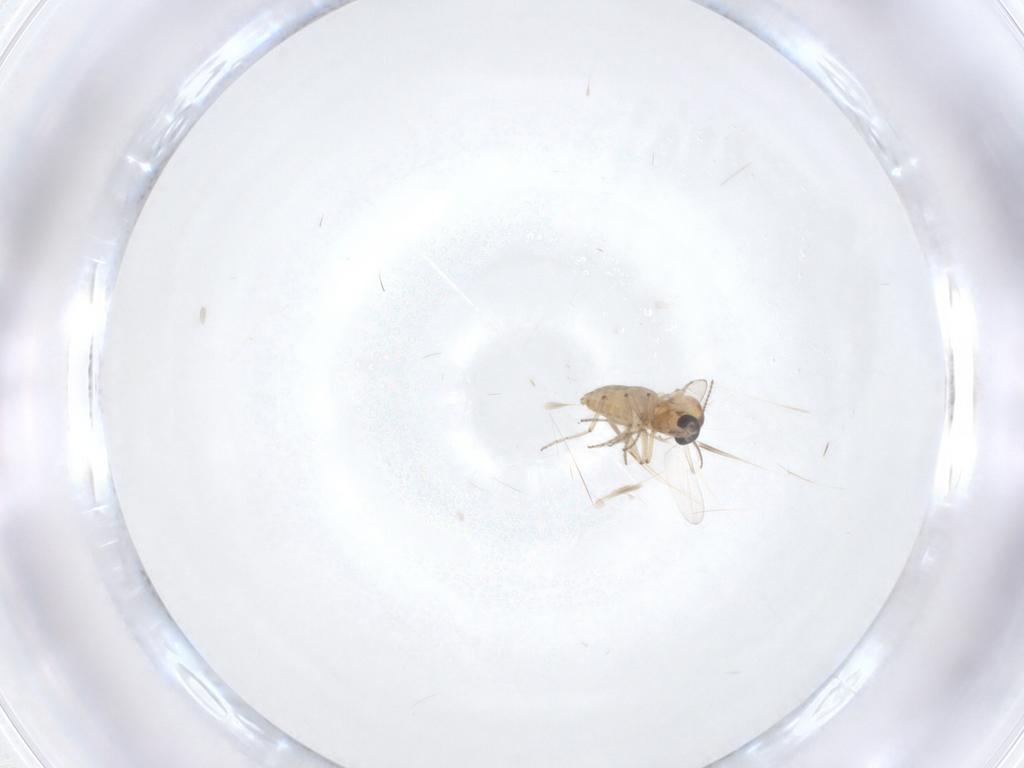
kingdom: Animalia
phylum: Arthropoda
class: Insecta
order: Diptera
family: Ceratopogonidae
